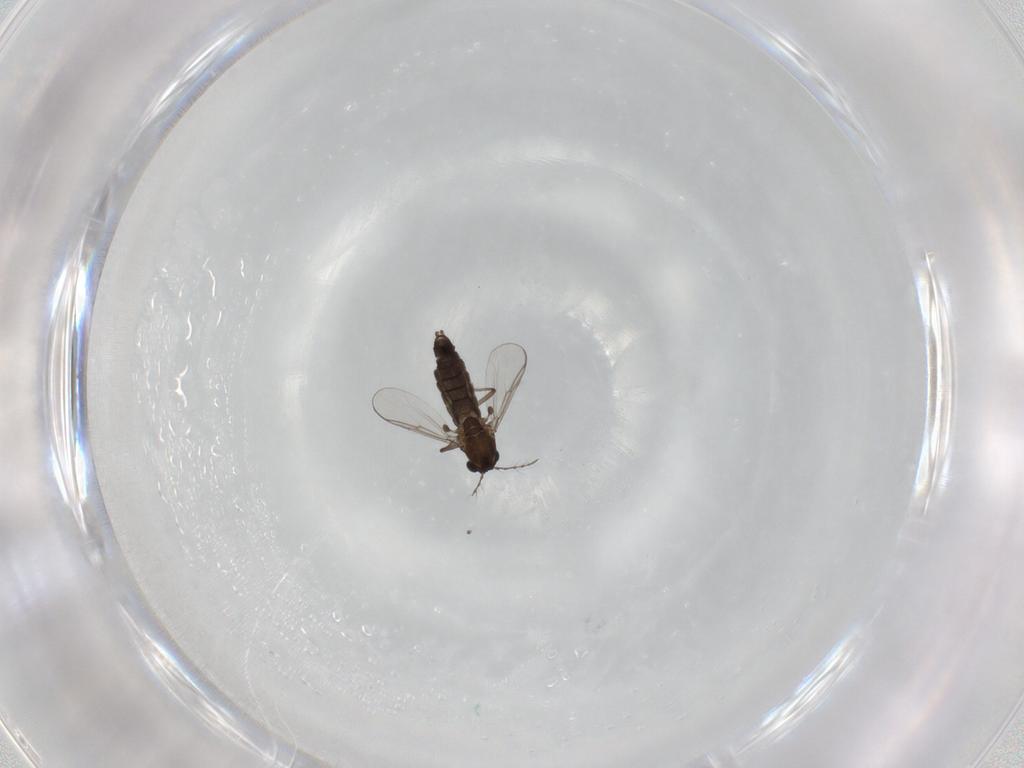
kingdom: Animalia
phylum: Arthropoda
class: Insecta
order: Diptera
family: Chironomidae
